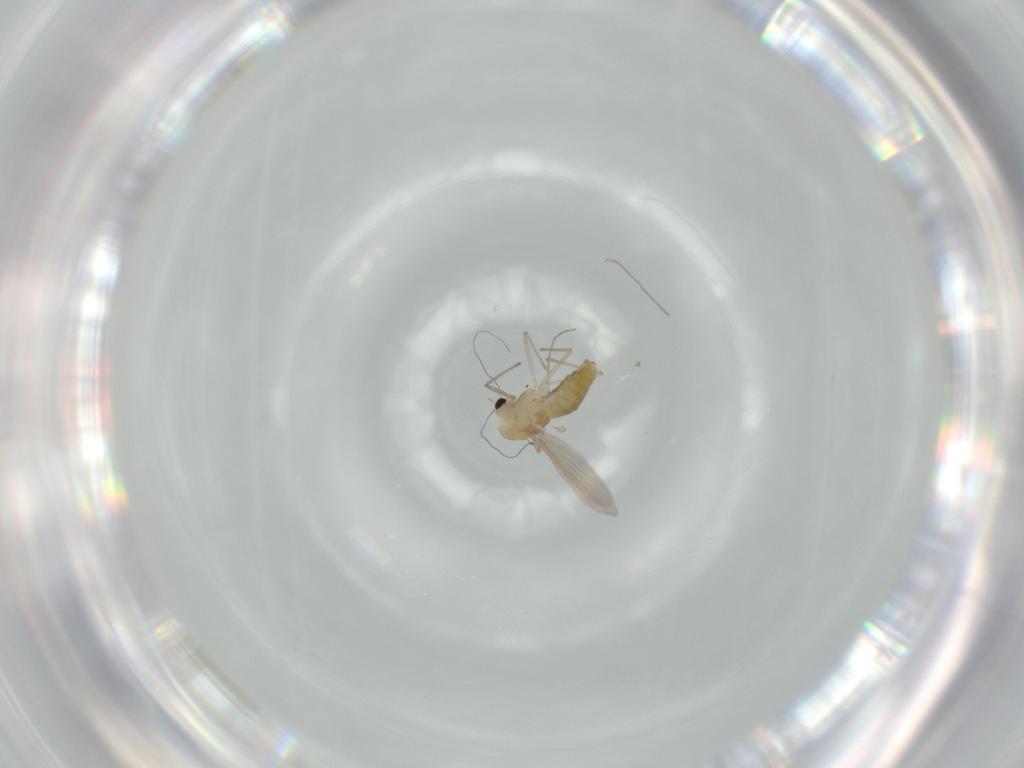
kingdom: Animalia
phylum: Arthropoda
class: Insecta
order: Diptera
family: Chironomidae
